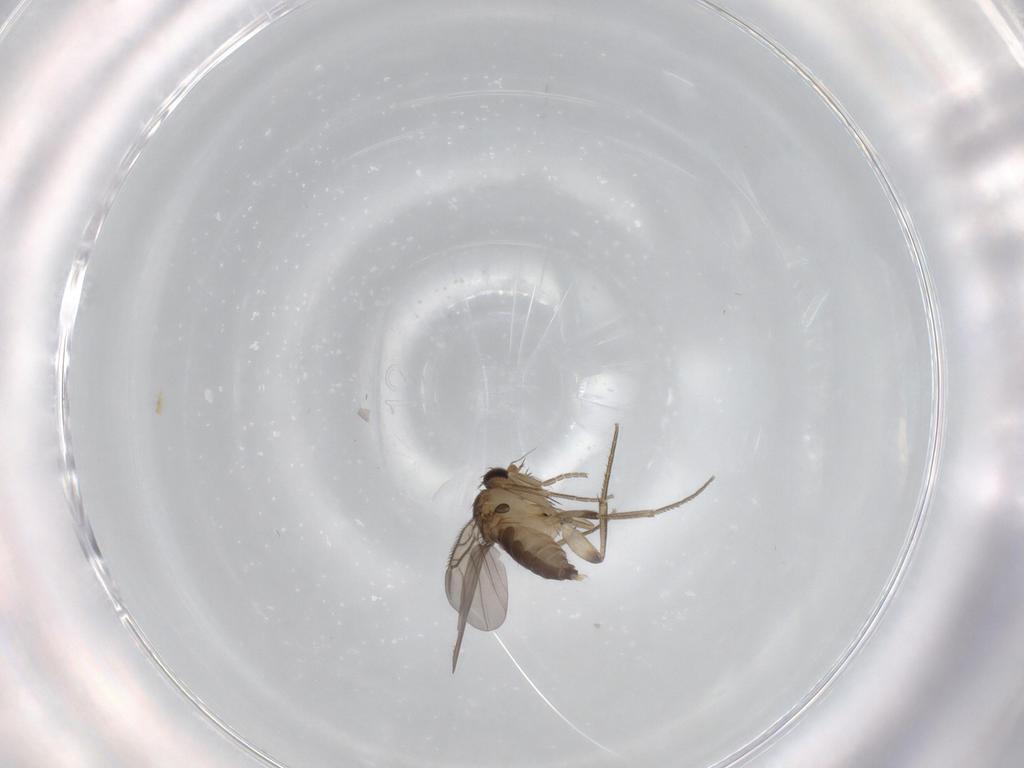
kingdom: Animalia
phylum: Arthropoda
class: Insecta
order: Diptera
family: Phoridae
